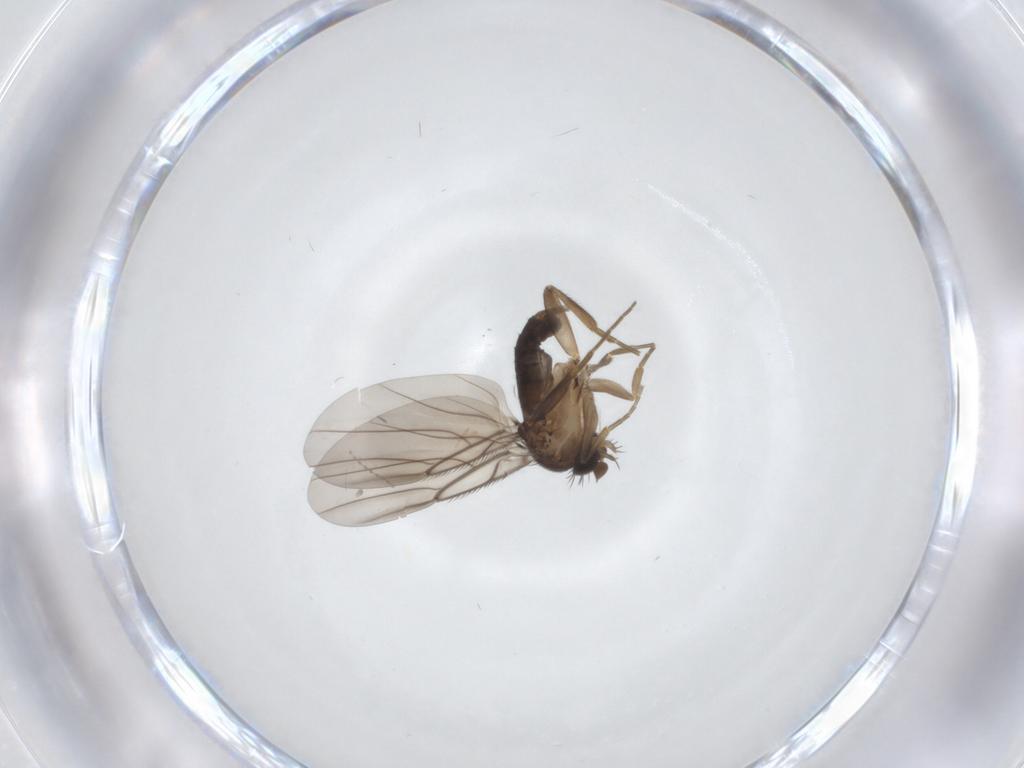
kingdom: Animalia
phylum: Arthropoda
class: Insecta
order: Diptera
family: Phoridae
